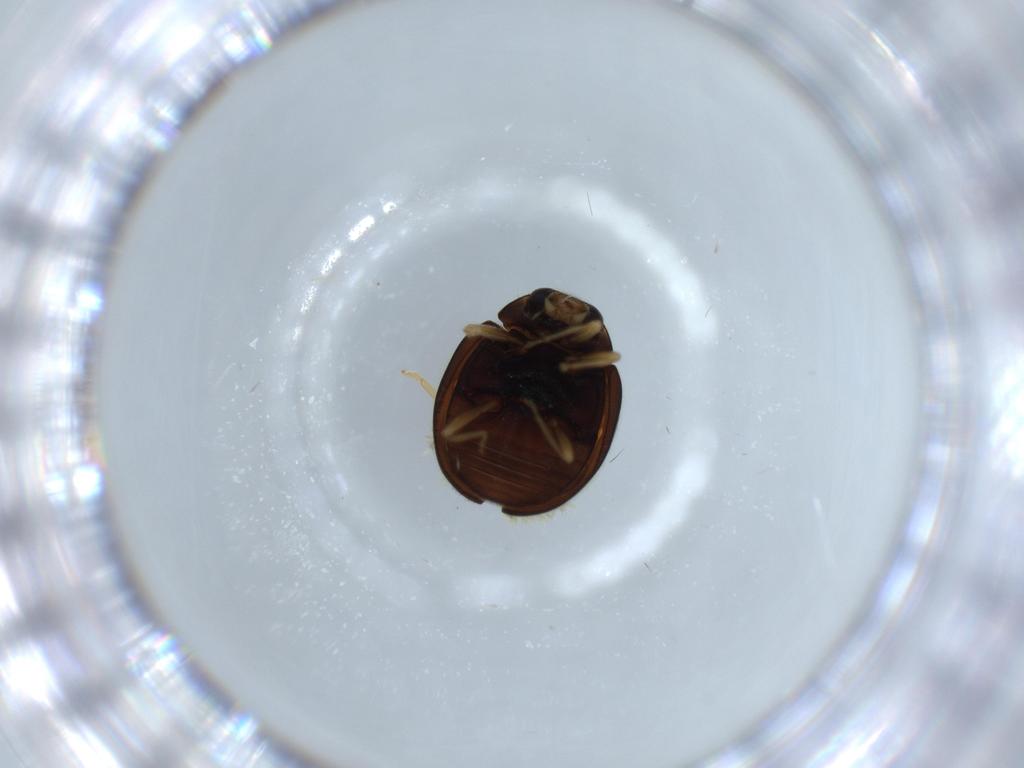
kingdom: Animalia
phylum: Arthropoda
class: Insecta
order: Coleoptera
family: Coccinellidae
